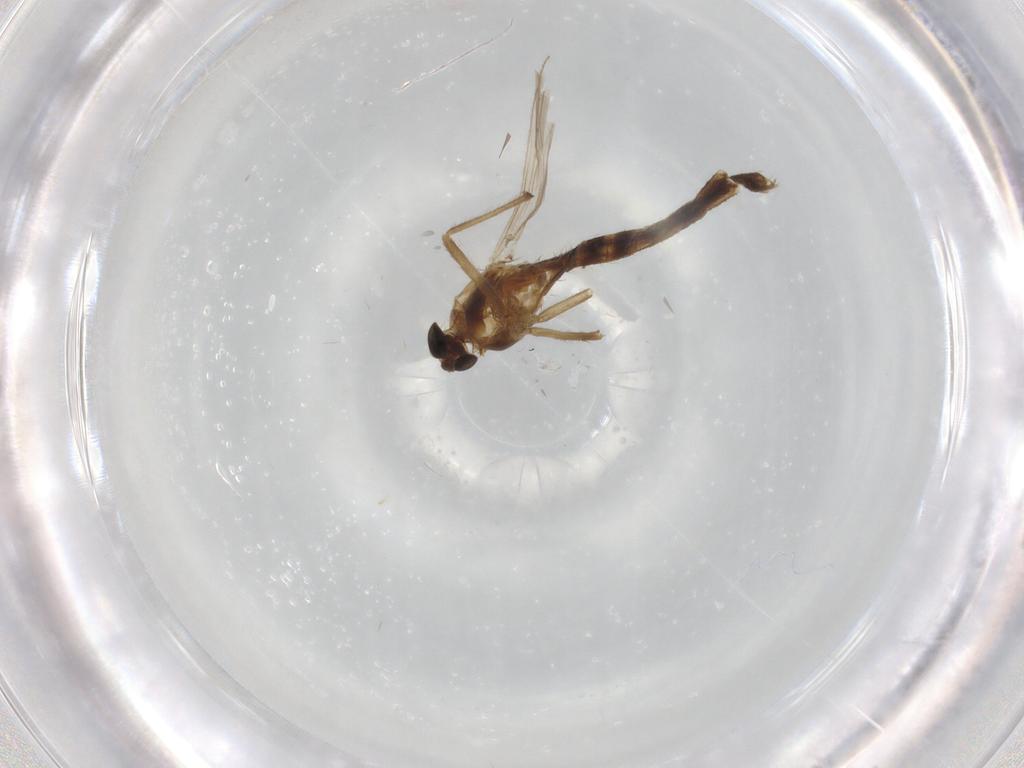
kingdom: Animalia
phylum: Arthropoda
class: Insecta
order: Diptera
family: Chironomidae
